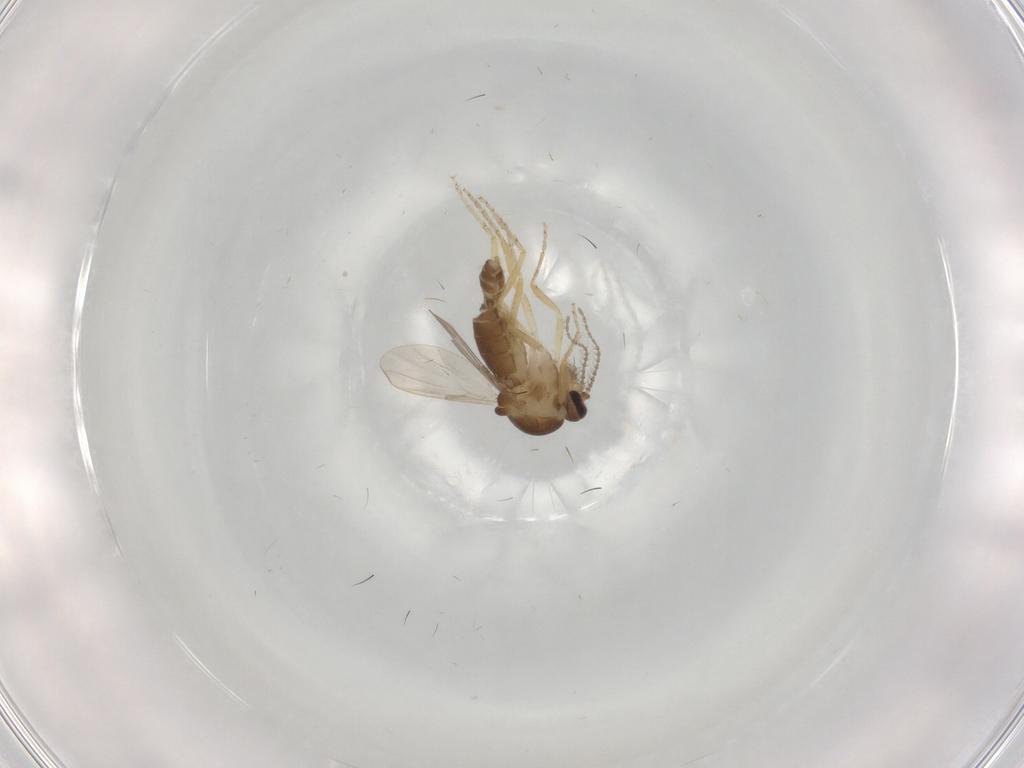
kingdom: Animalia
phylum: Arthropoda
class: Insecta
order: Diptera
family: Ceratopogonidae
